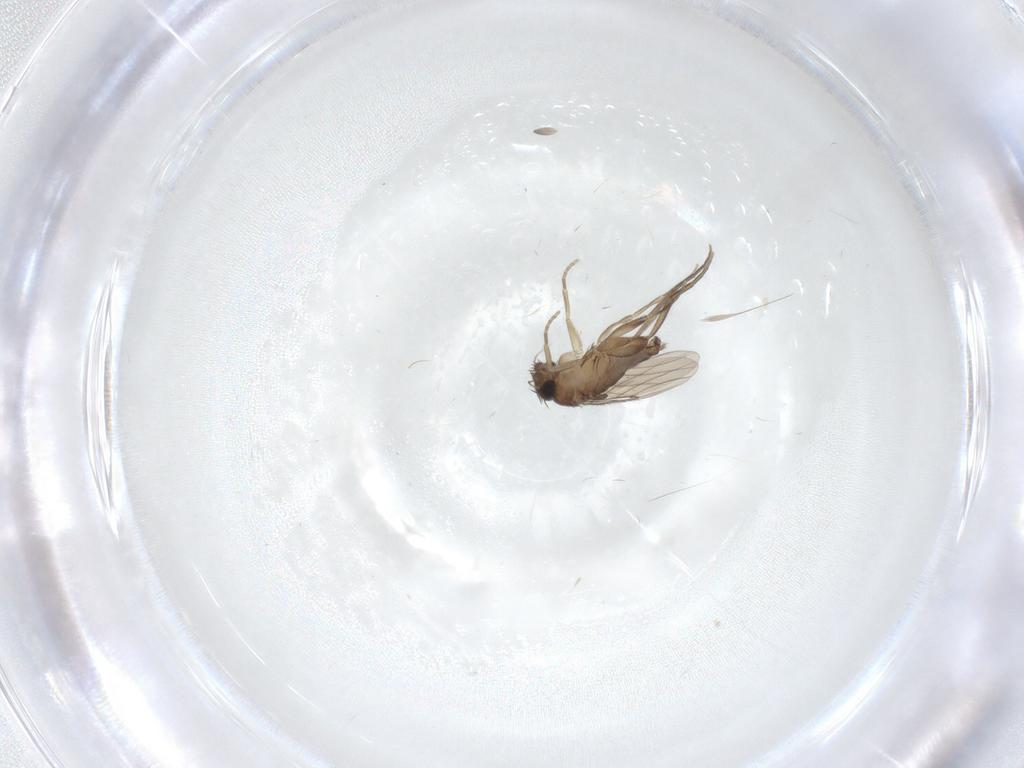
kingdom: Animalia
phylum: Arthropoda
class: Insecta
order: Diptera
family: Phoridae
